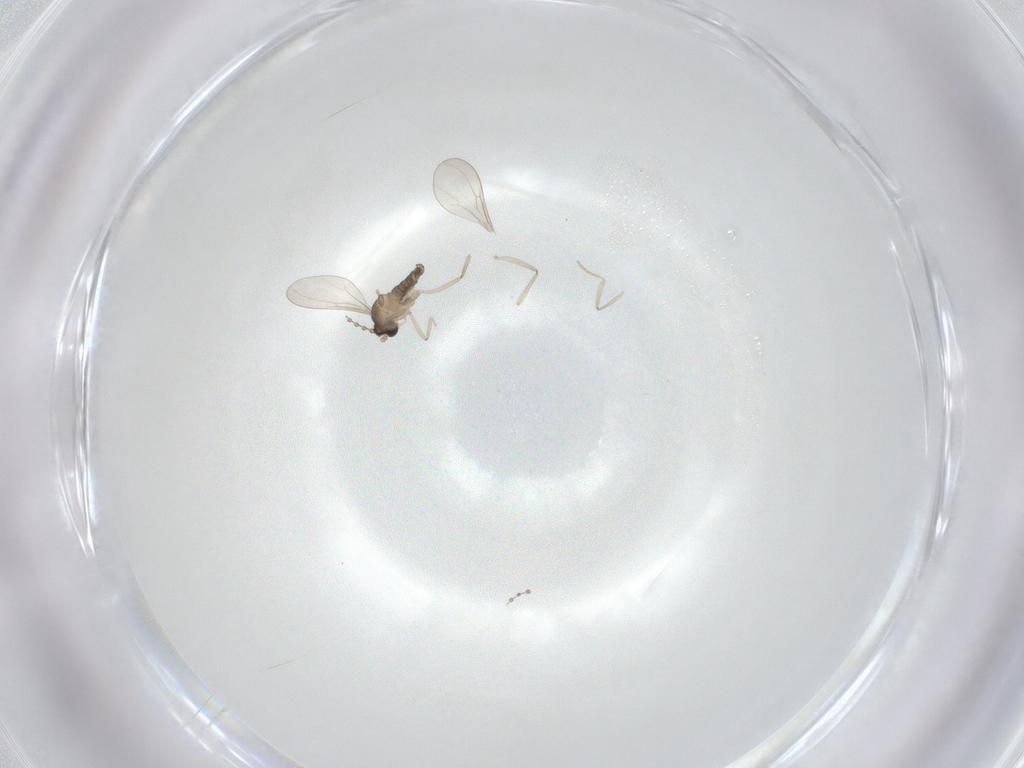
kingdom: Animalia
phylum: Arthropoda
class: Insecta
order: Diptera
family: Cecidomyiidae
